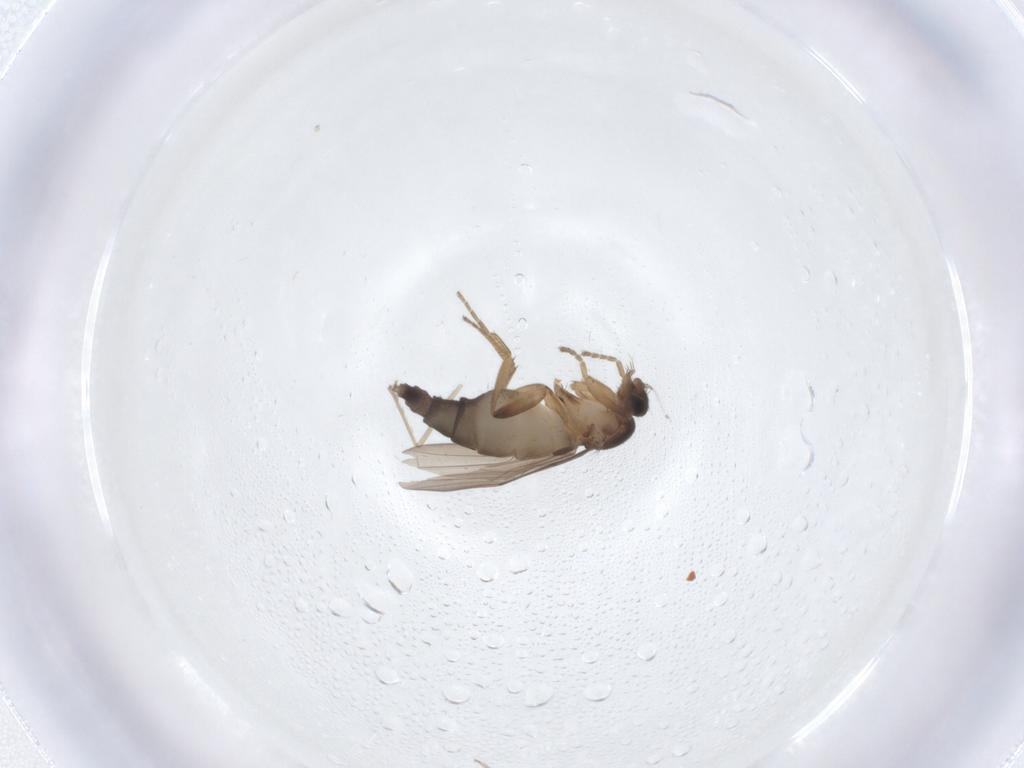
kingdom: Animalia
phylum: Arthropoda
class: Insecta
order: Diptera
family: Chironomidae
